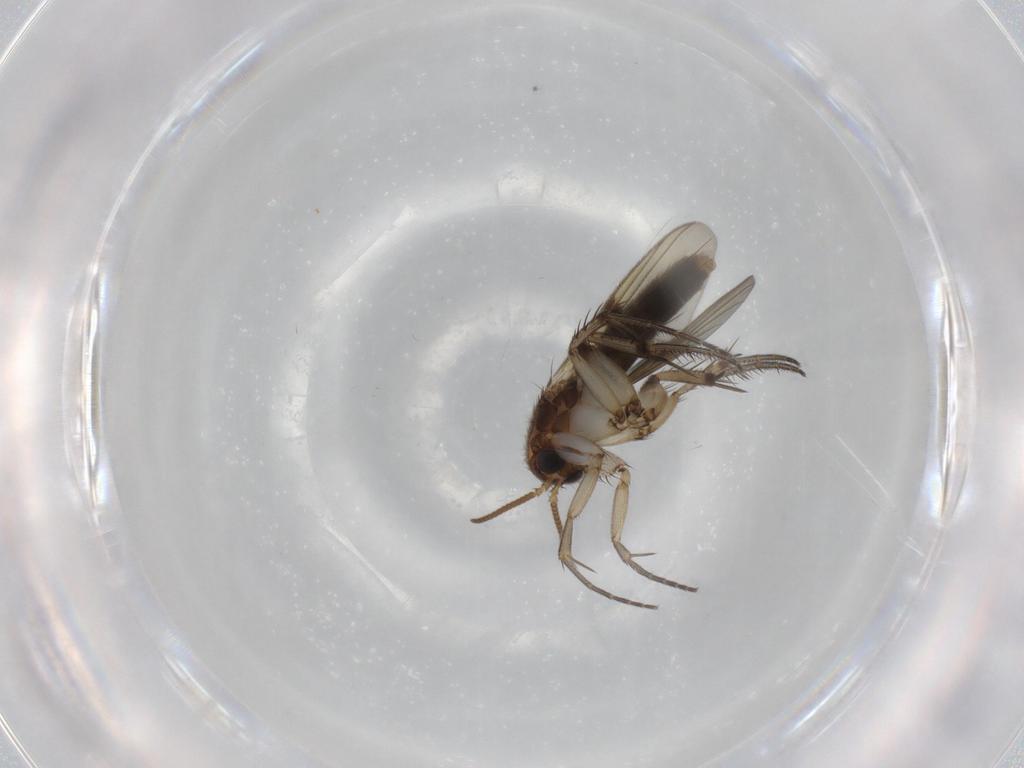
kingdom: Animalia
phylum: Arthropoda
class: Insecta
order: Diptera
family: Mycetophilidae
